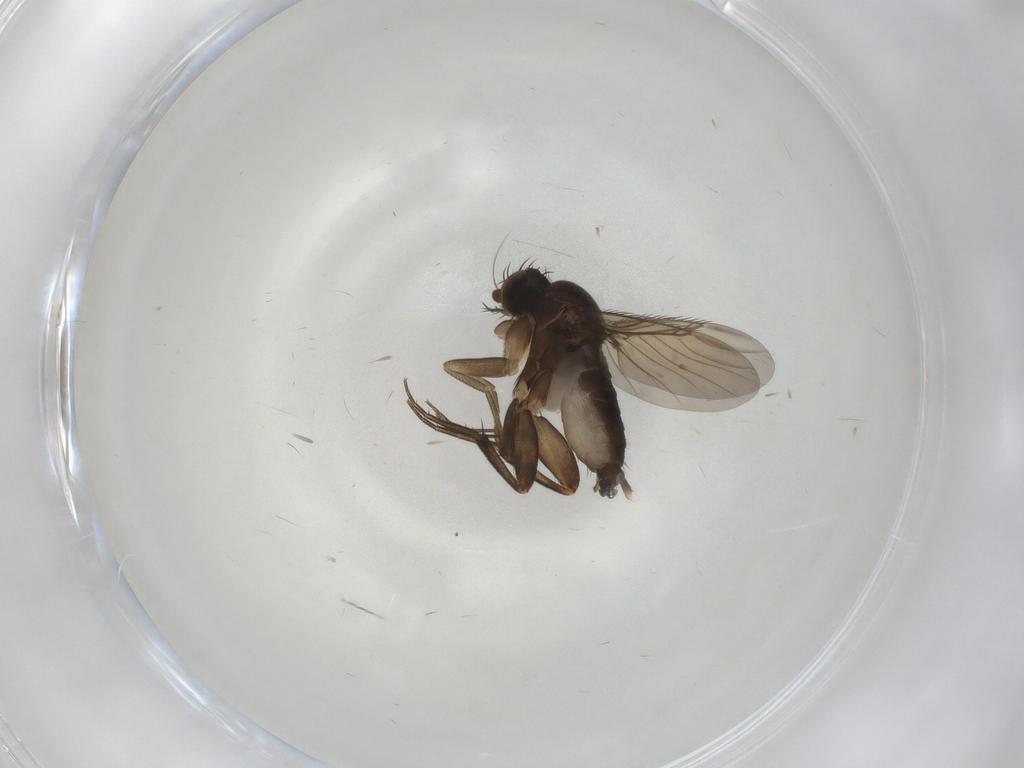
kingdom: Animalia
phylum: Arthropoda
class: Insecta
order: Diptera
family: Phoridae
